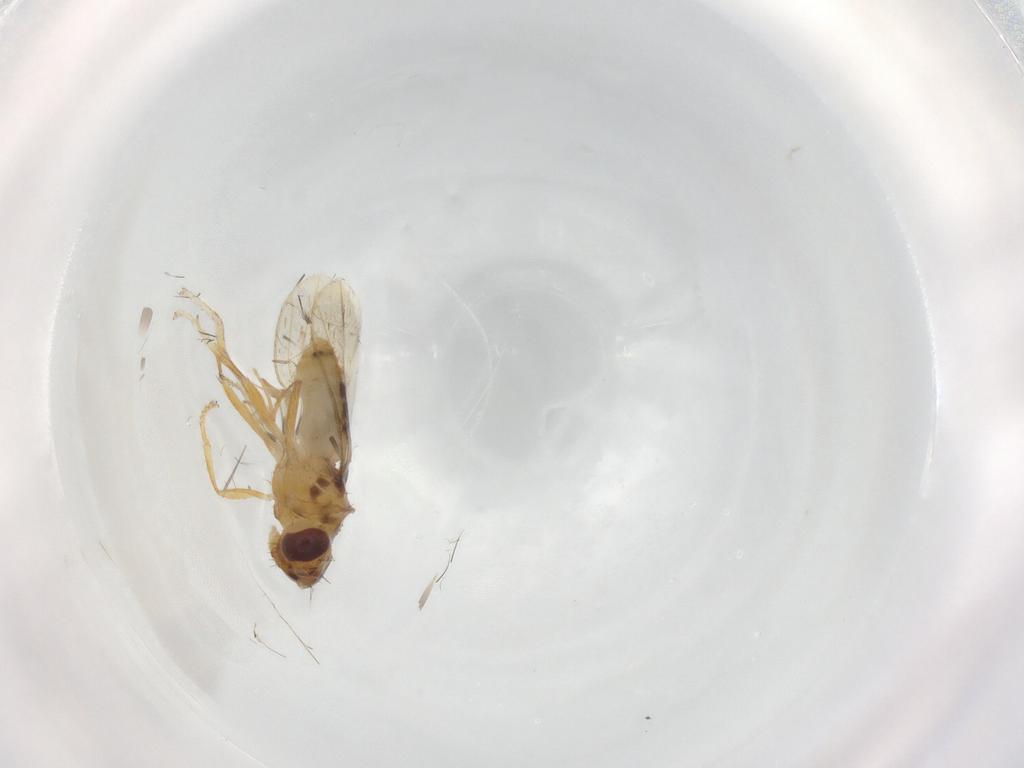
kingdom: Animalia
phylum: Arthropoda
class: Insecta
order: Diptera
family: Periscelididae
